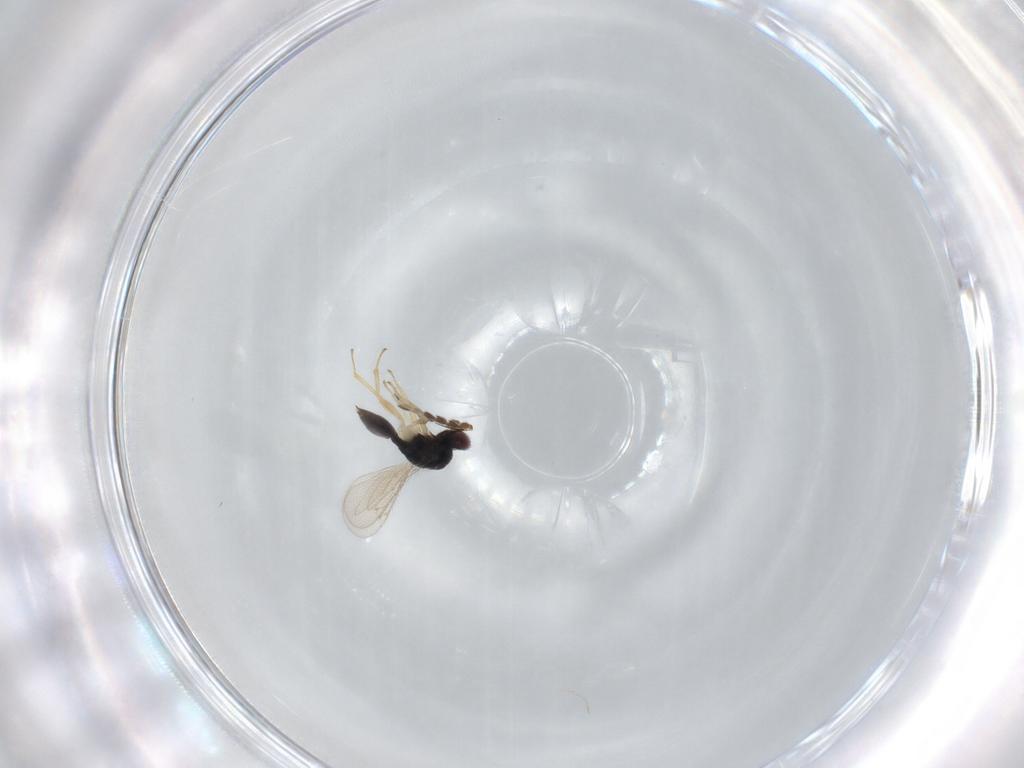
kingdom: Animalia
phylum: Arthropoda
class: Insecta
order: Hymenoptera
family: Eulophidae
